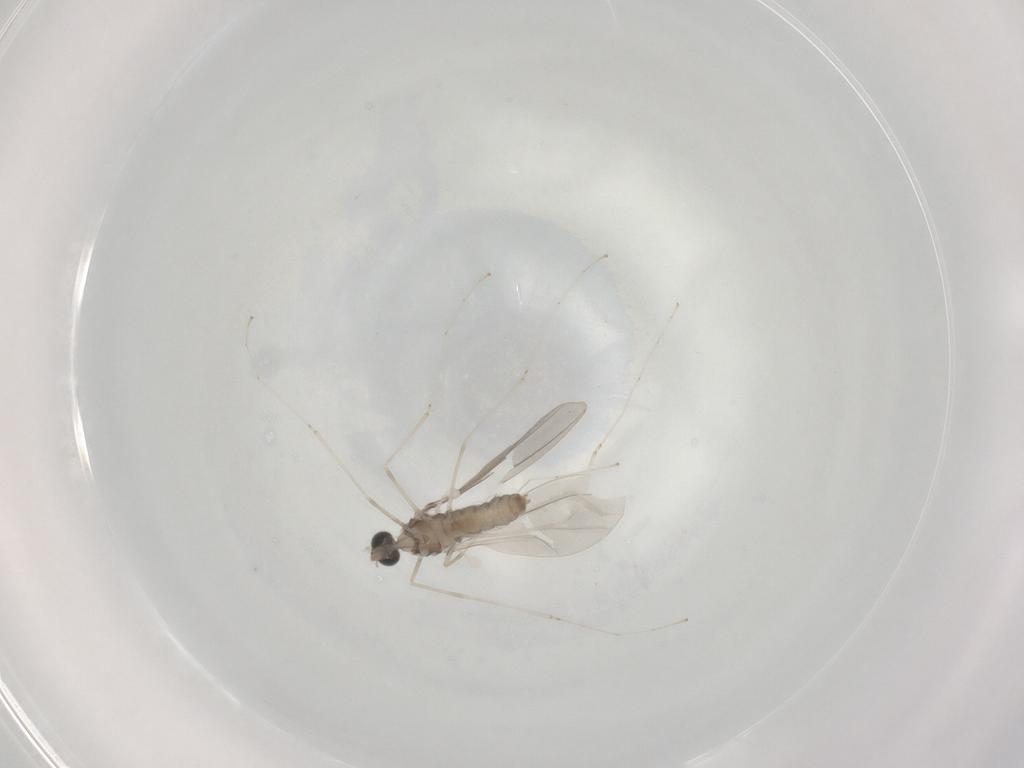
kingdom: Animalia
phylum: Arthropoda
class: Insecta
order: Diptera
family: Cecidomyiidae
